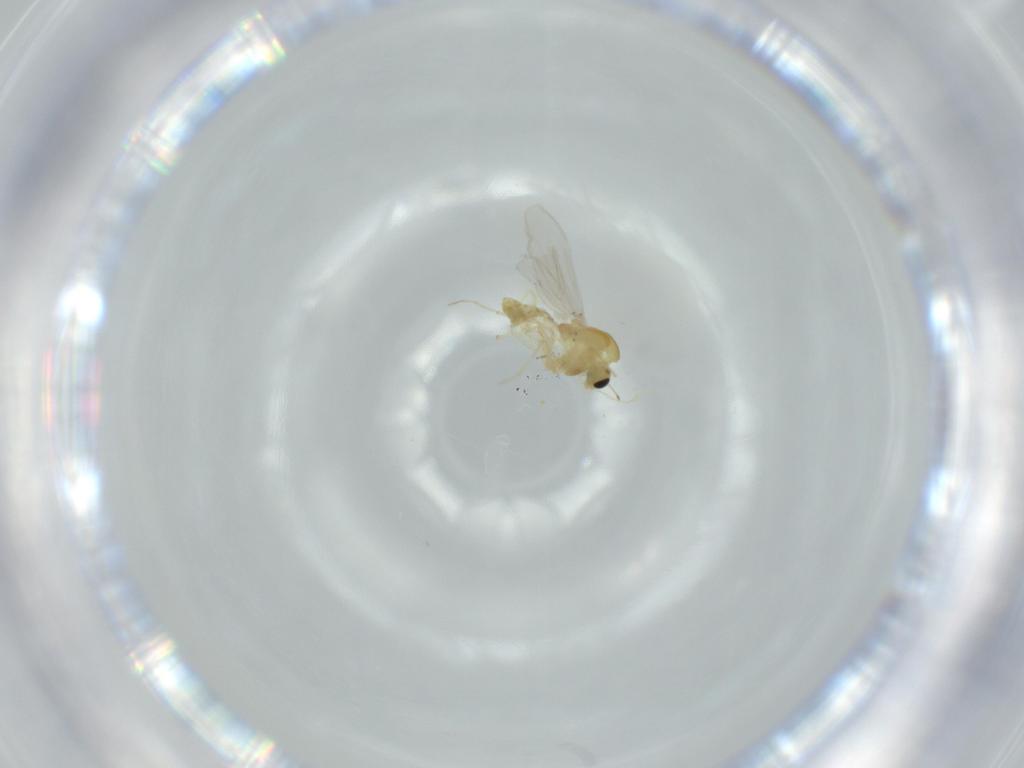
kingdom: Animalia
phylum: Arthropoda
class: Insecta
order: Diptera
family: Chironomidae
